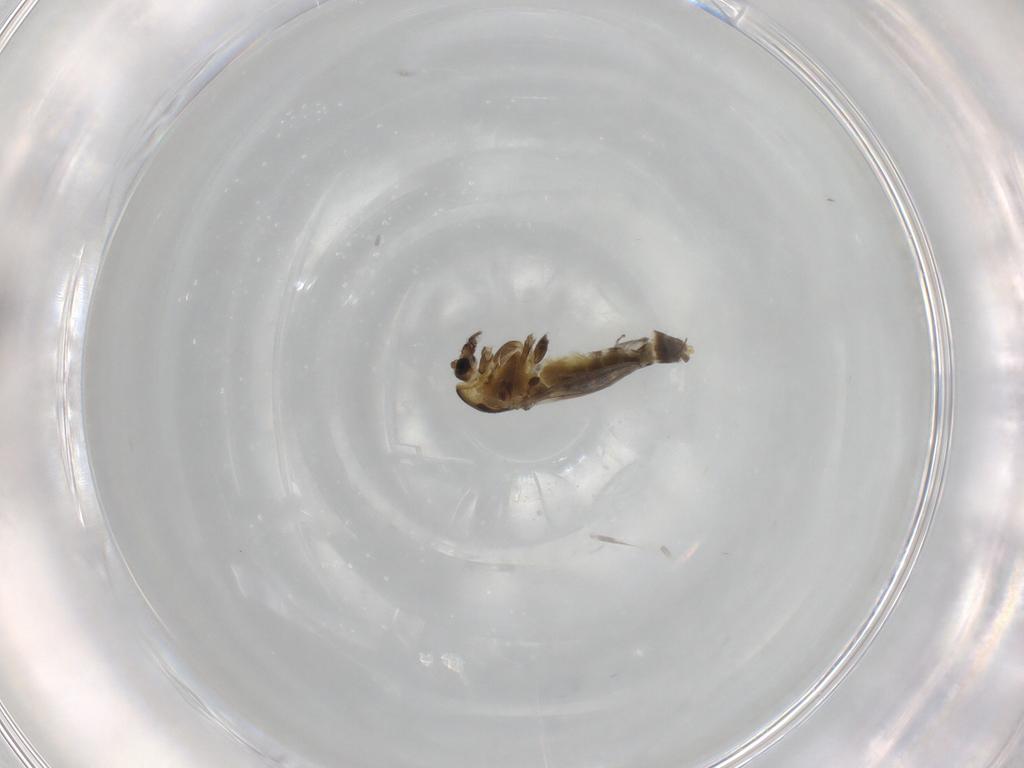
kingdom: Animalia
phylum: Arthropoda
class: Insecta
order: Diptera
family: Chironomidae
